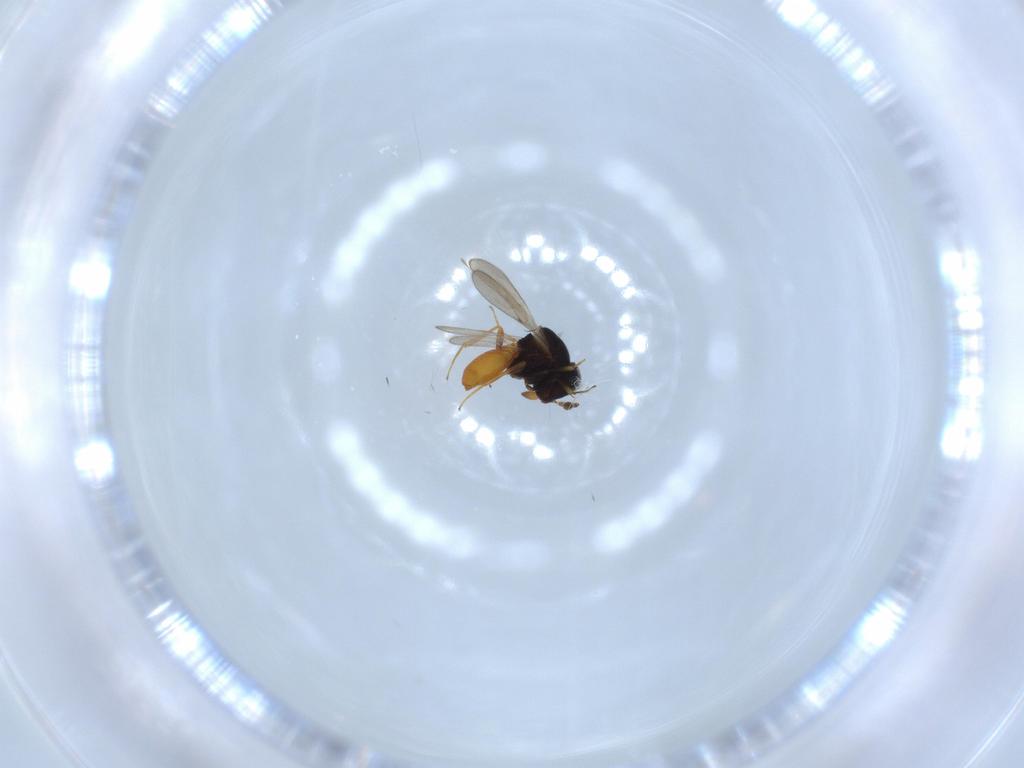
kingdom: Animalia
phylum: Arthropoda
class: Insecta
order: Hymenoptera
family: Scelionidae
